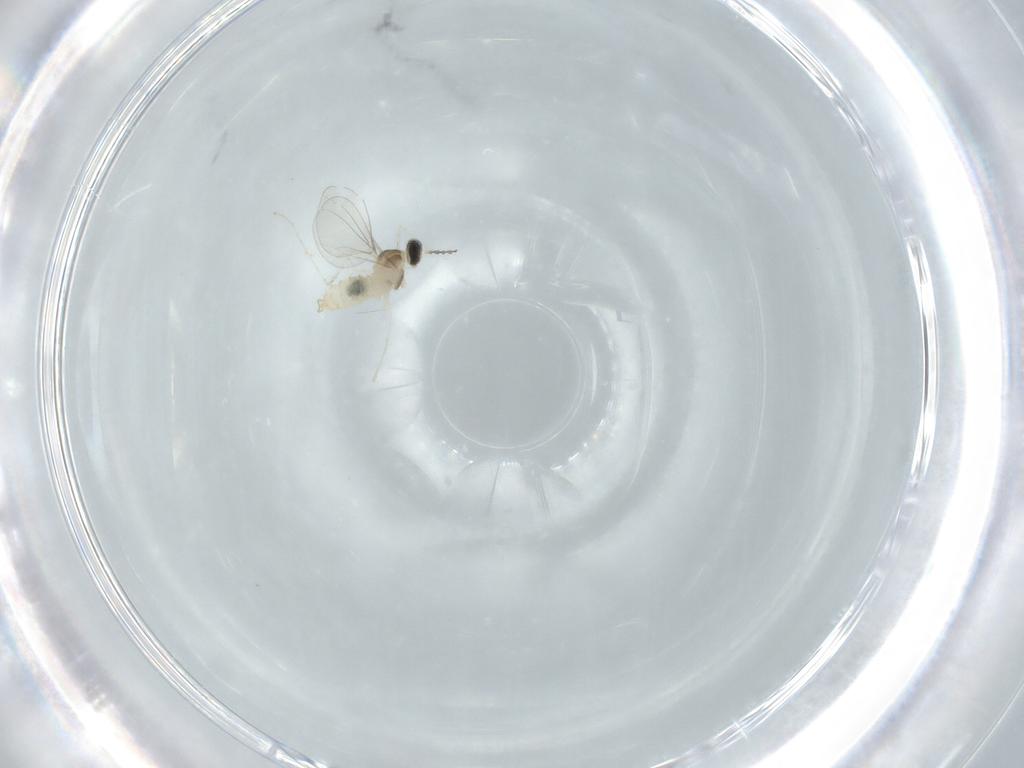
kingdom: Animalia
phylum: Arthropoda
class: Insecta
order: Diptera
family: Cecidomyiidae
